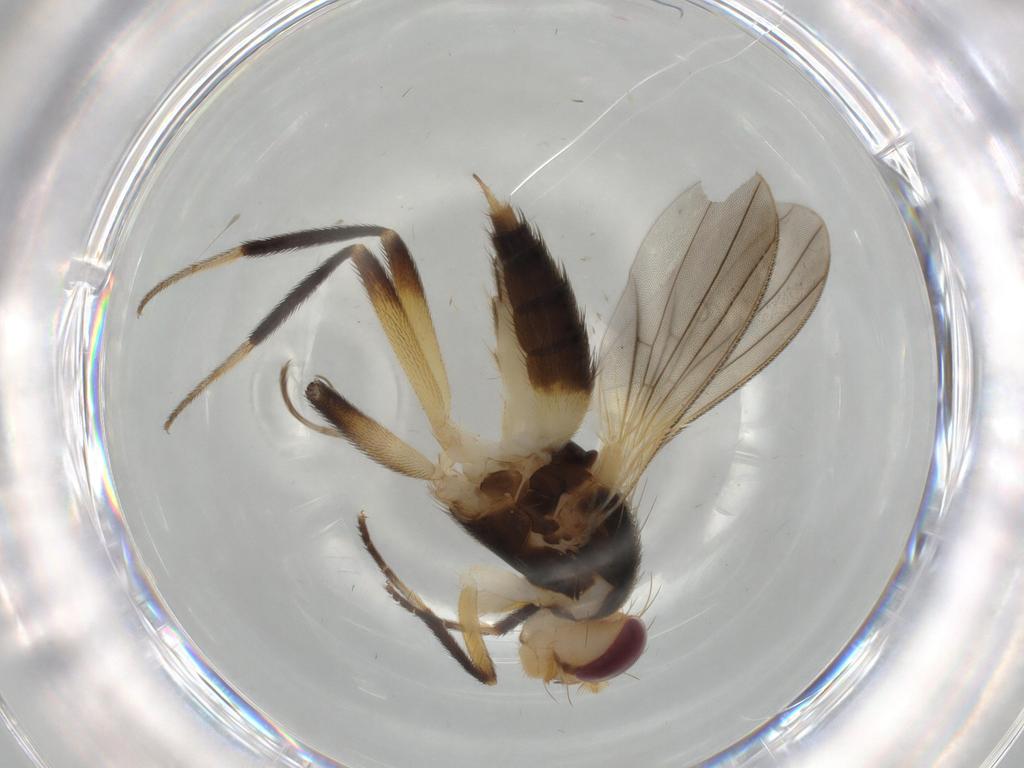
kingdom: Animalia
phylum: Arthropoda
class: Insecta
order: Diptera
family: Clusiidae
